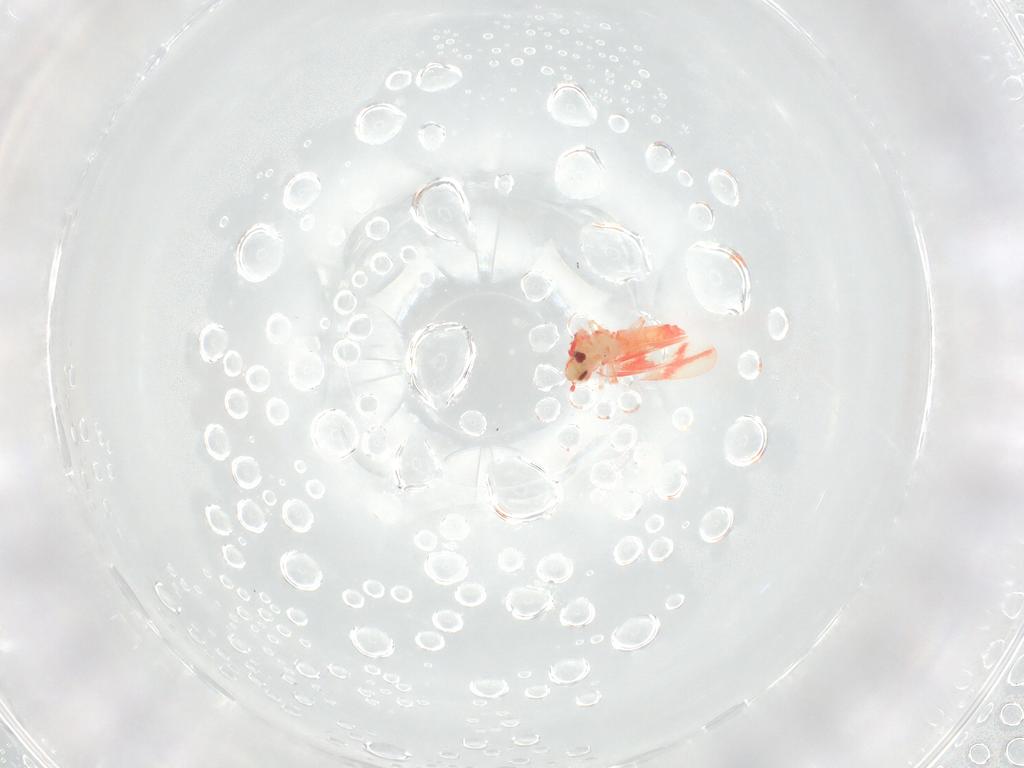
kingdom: Animalia
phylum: Arthropoda
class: Insecta
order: Hemiptera
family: Aleyrodidae
